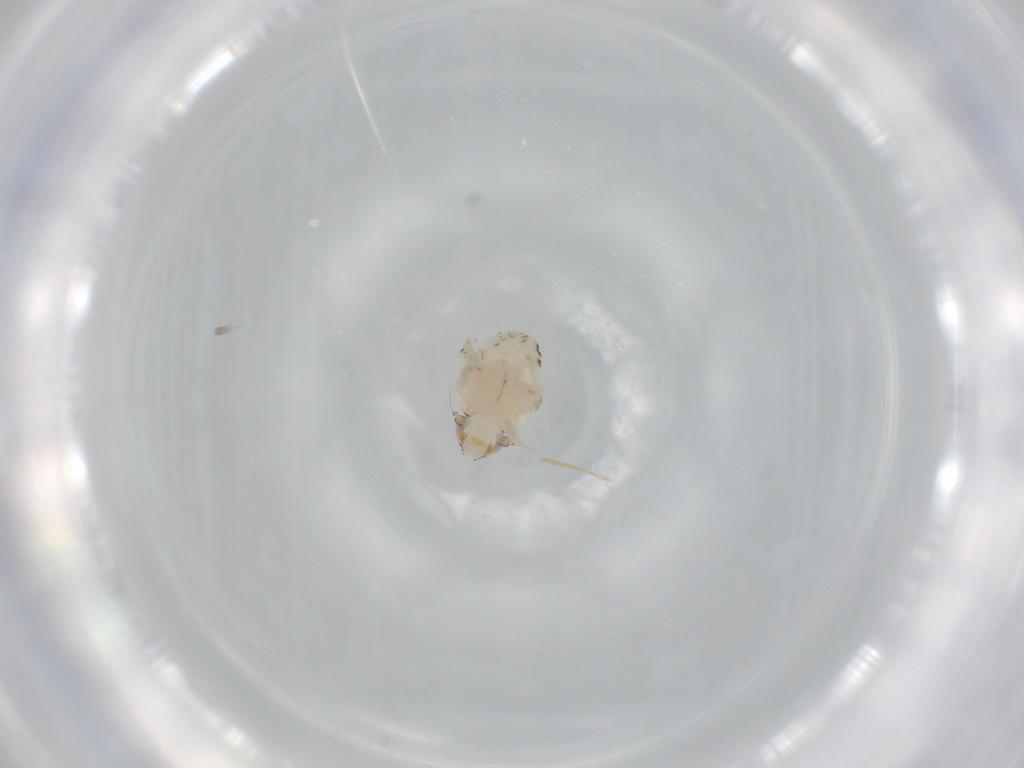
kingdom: Animalia
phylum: Arthropoda
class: Insecta
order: Hemiptera
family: Nogodinidae
